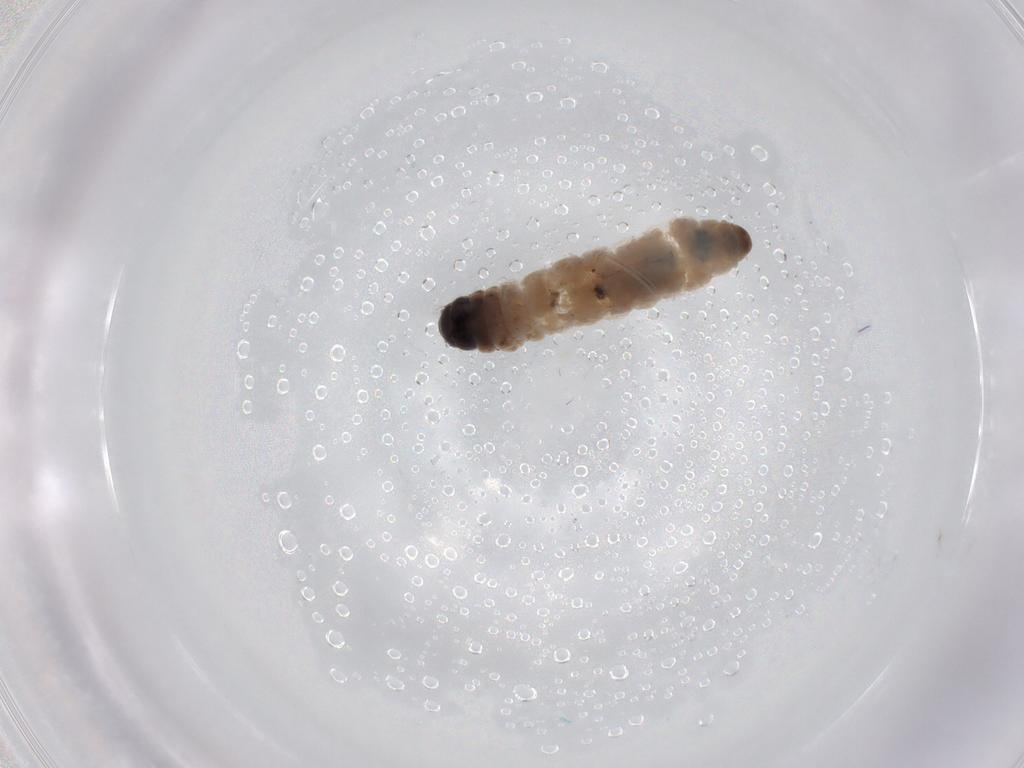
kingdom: Animalia
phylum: Arthropoda
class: Insecta
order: Lepidoptera
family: Psychidae
